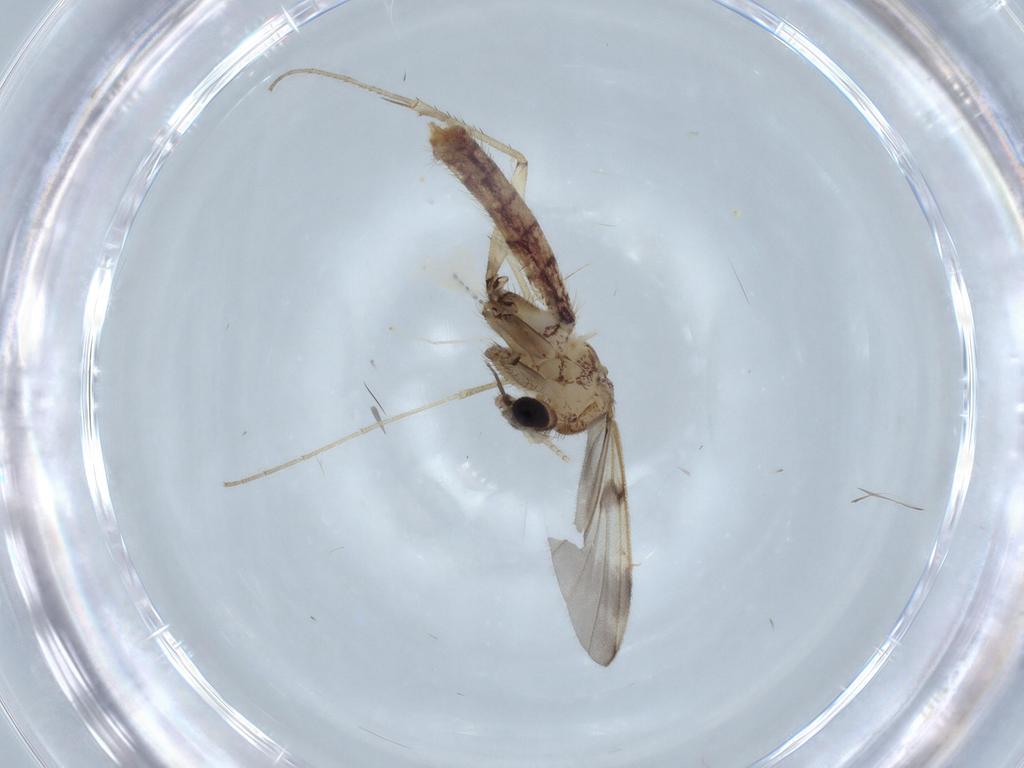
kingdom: Animalia
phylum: Arthropoda
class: Insecta
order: Diptera
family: Mycetophilidae
